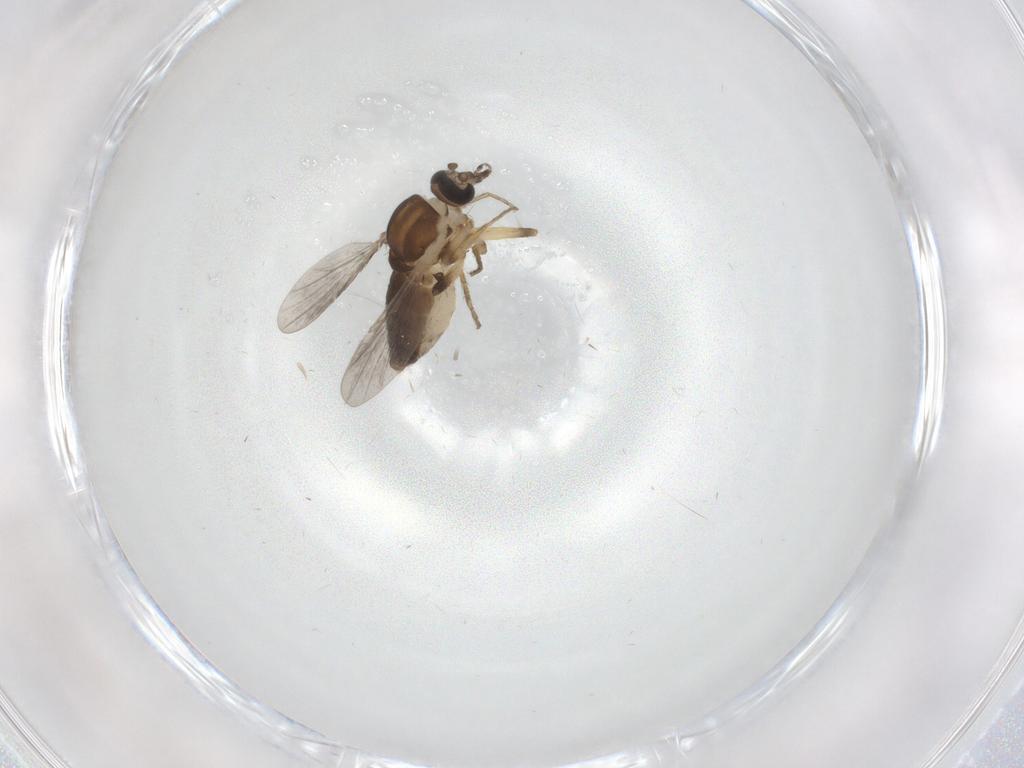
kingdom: Animalia
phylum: Arthropoda
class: Insecta
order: Diptera
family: Ceratopogonidae
